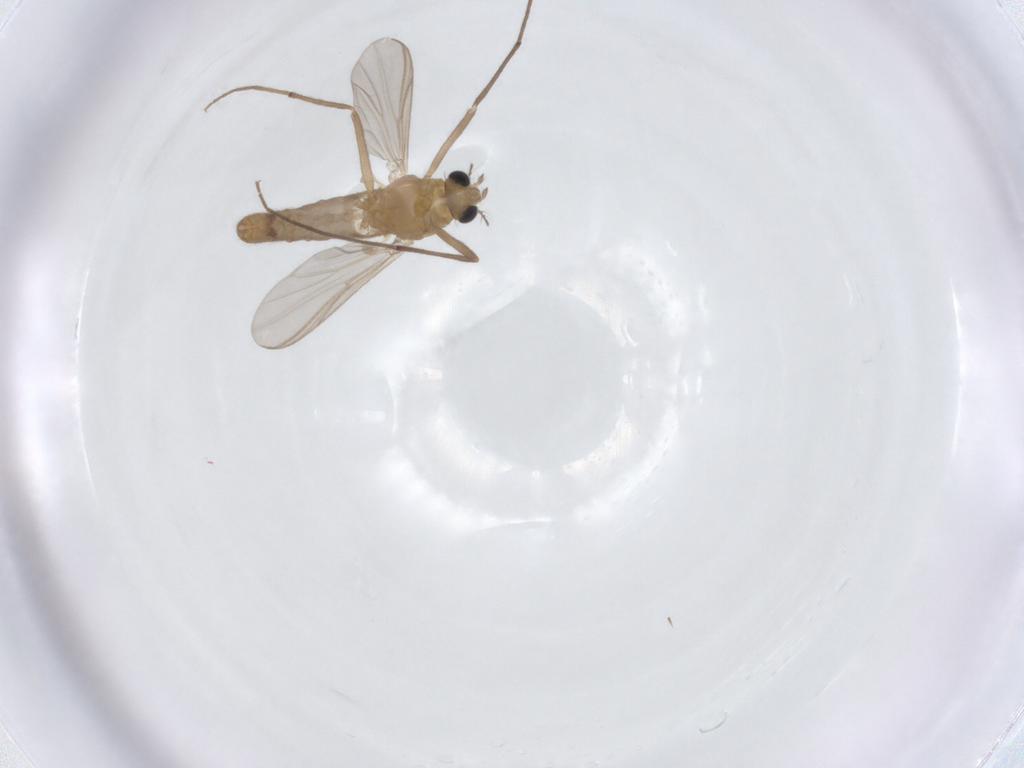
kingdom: Animalia
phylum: Arthropoda
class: Insecta
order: Diptera
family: Chironomidae
